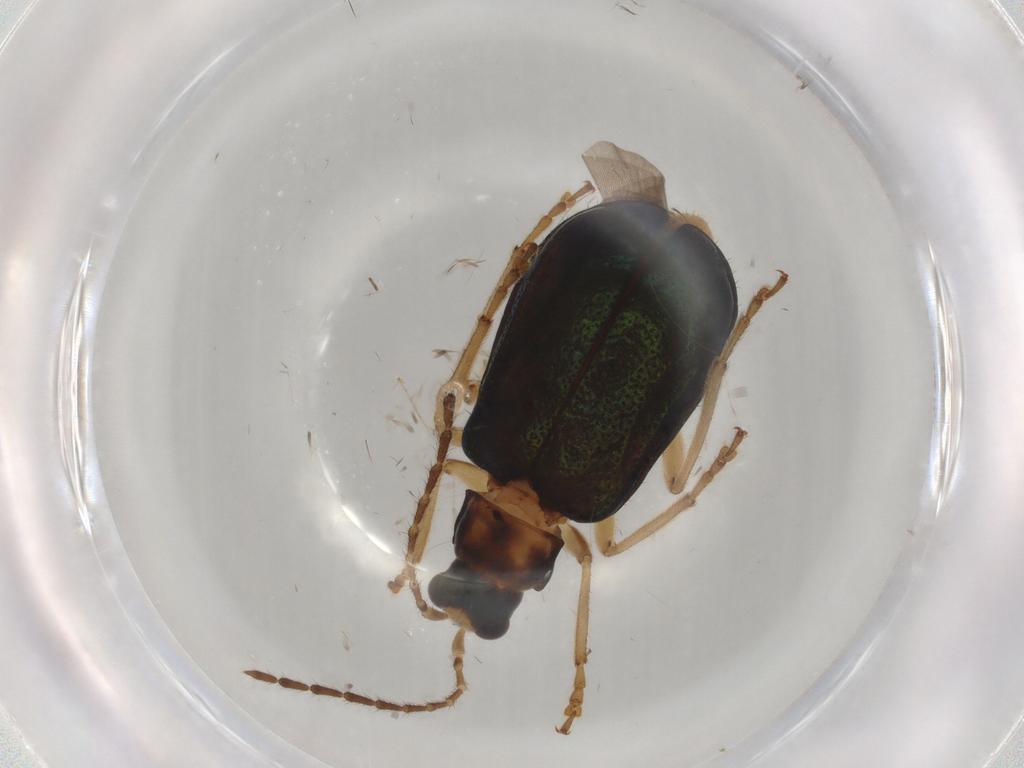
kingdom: Animalia
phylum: Arthropoda
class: Insecta
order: Coleoptera
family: Chrysomelidae
